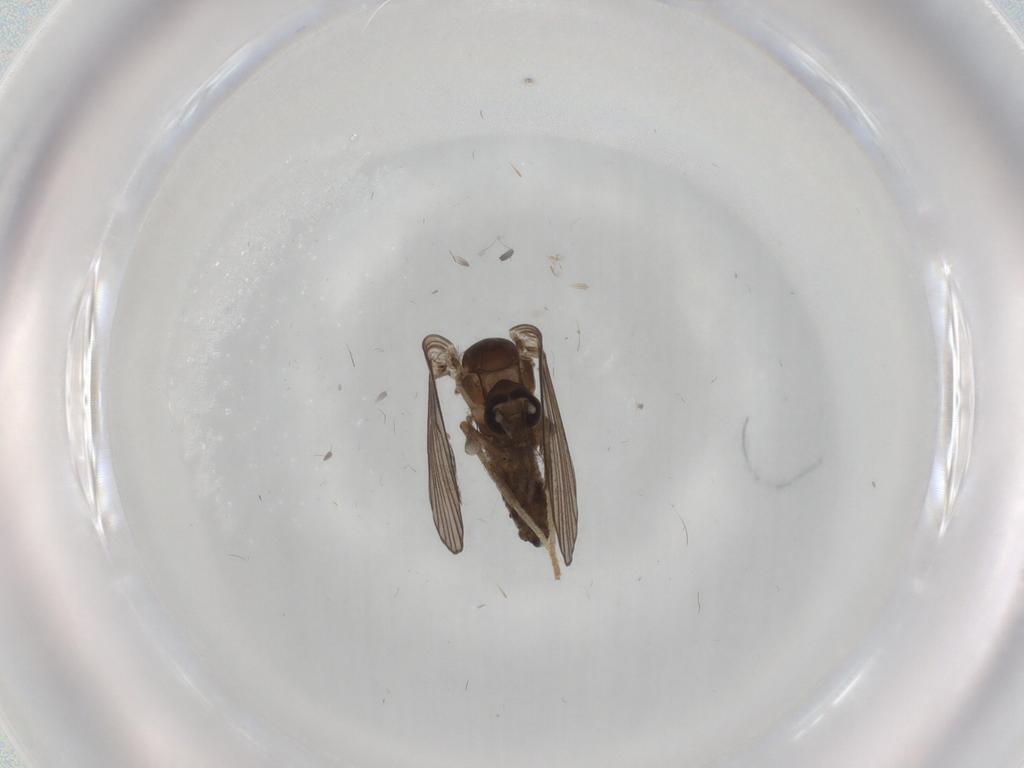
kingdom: Animalia
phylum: Arthropoda
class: Insecta
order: Diptera
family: Psychodidae
